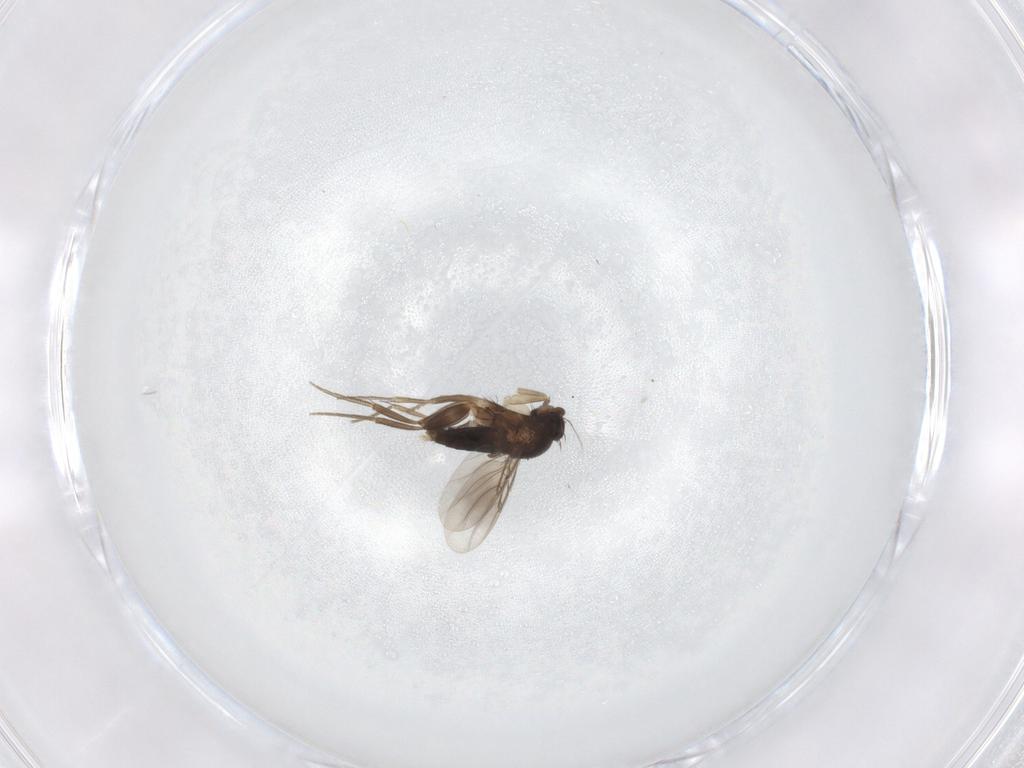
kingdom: Animalia
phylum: Arthropoda
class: Insecta
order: Diptera
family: Phoridae
